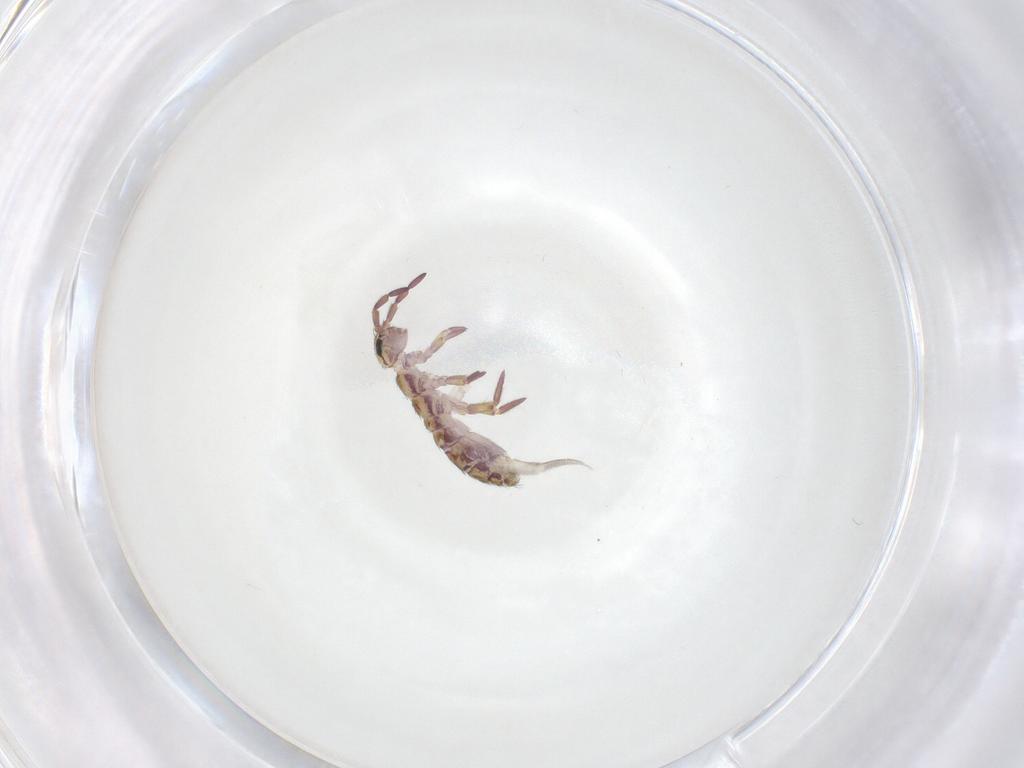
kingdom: Animalia
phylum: Arthropoda
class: Collembola
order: Entomobryomorpha
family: Isotomidae
